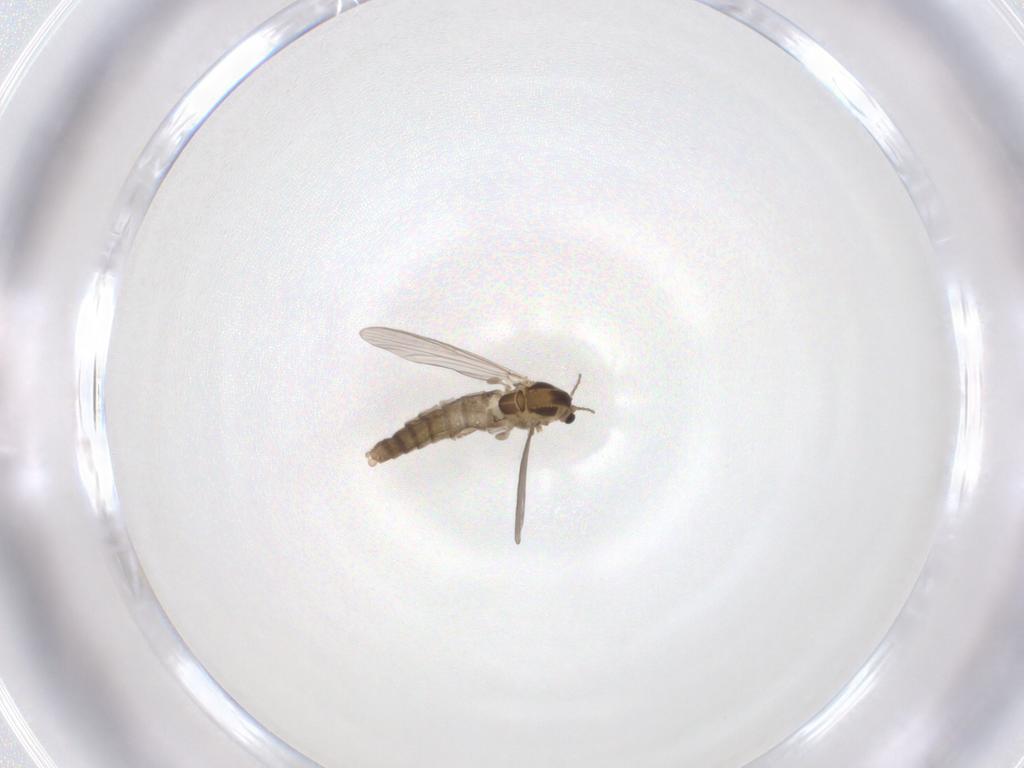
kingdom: Animalia
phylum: Arthropoda
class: Insecta
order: Diptera
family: Chironomidae
